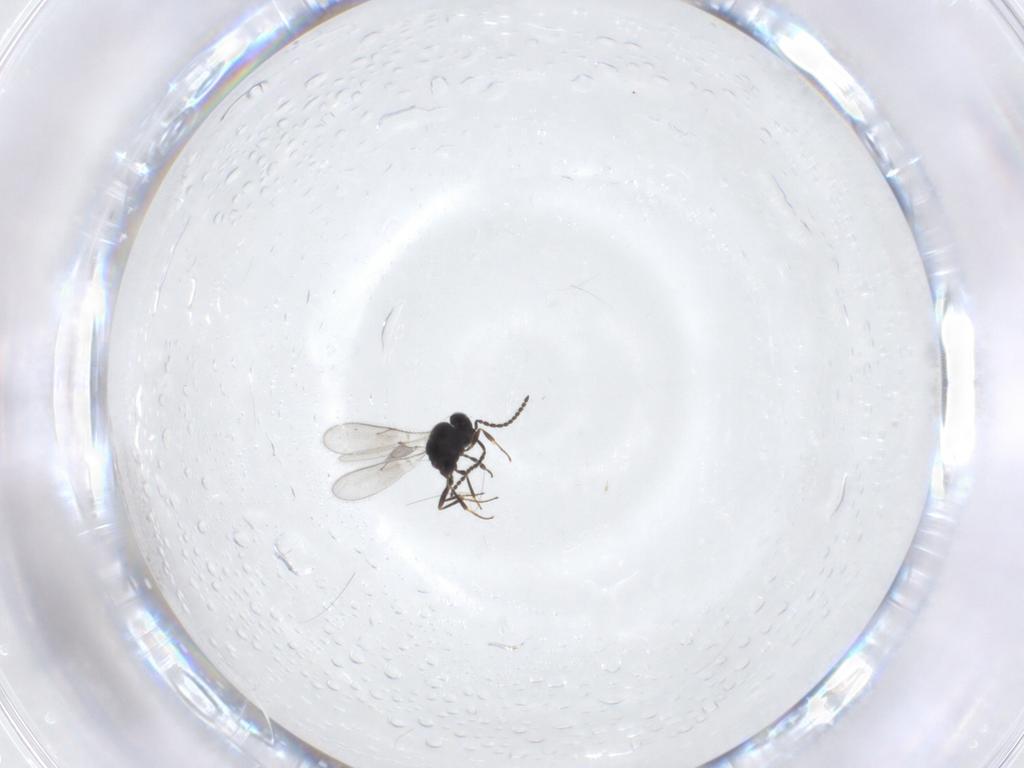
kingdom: Animalia
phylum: Arthropoda
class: Insecta
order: Hymenoptera
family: Scelionidae
